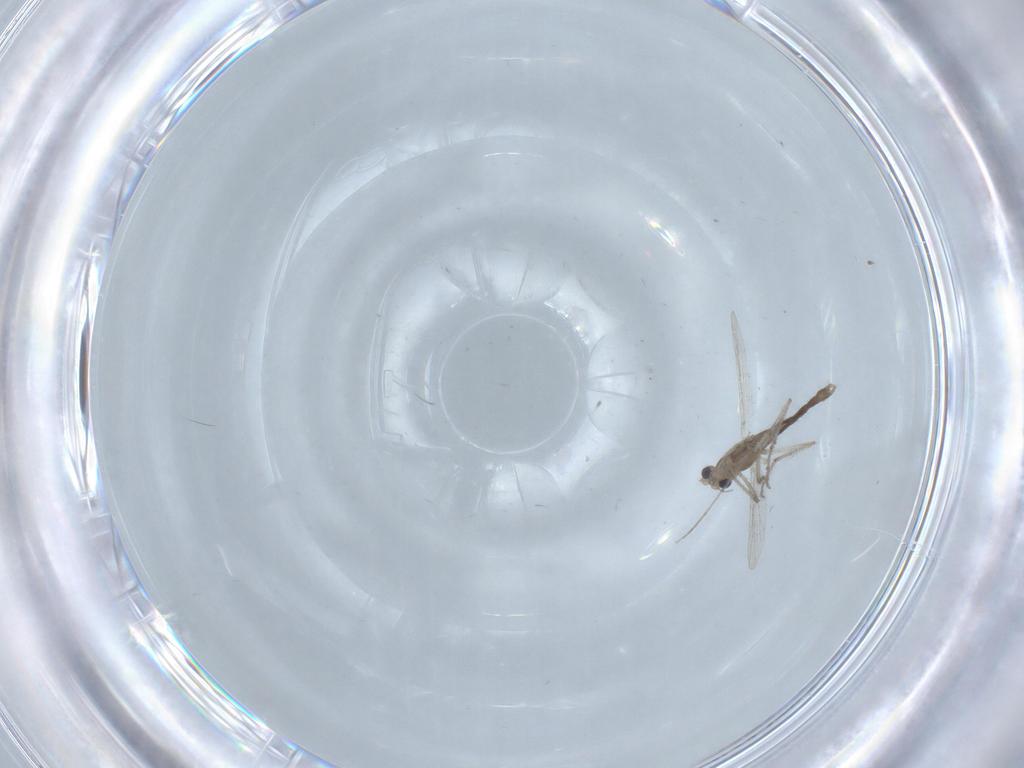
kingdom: Animalia
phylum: Arthropoda
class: Insecta
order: Diptera
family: Chironomidae
